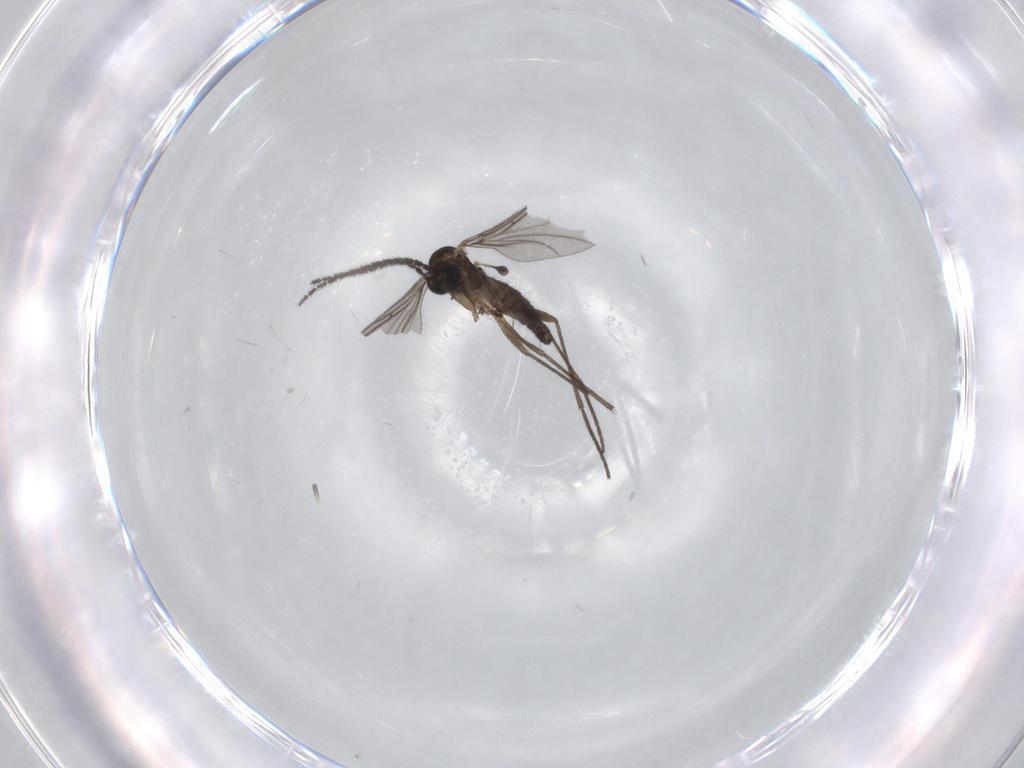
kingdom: Animalia
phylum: Arthropoda
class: Insecta
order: Diptera
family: Sciaridae
